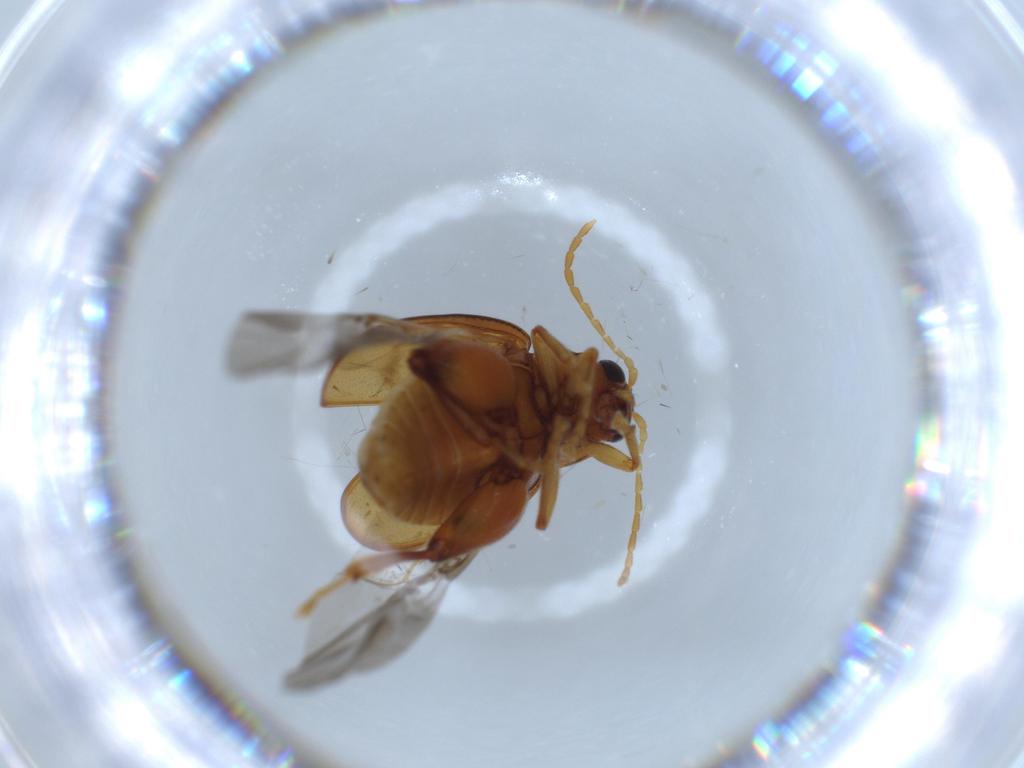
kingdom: Animalia
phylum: Arthropoda
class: Insecta
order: Coleoptera
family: Chrysomelidae
